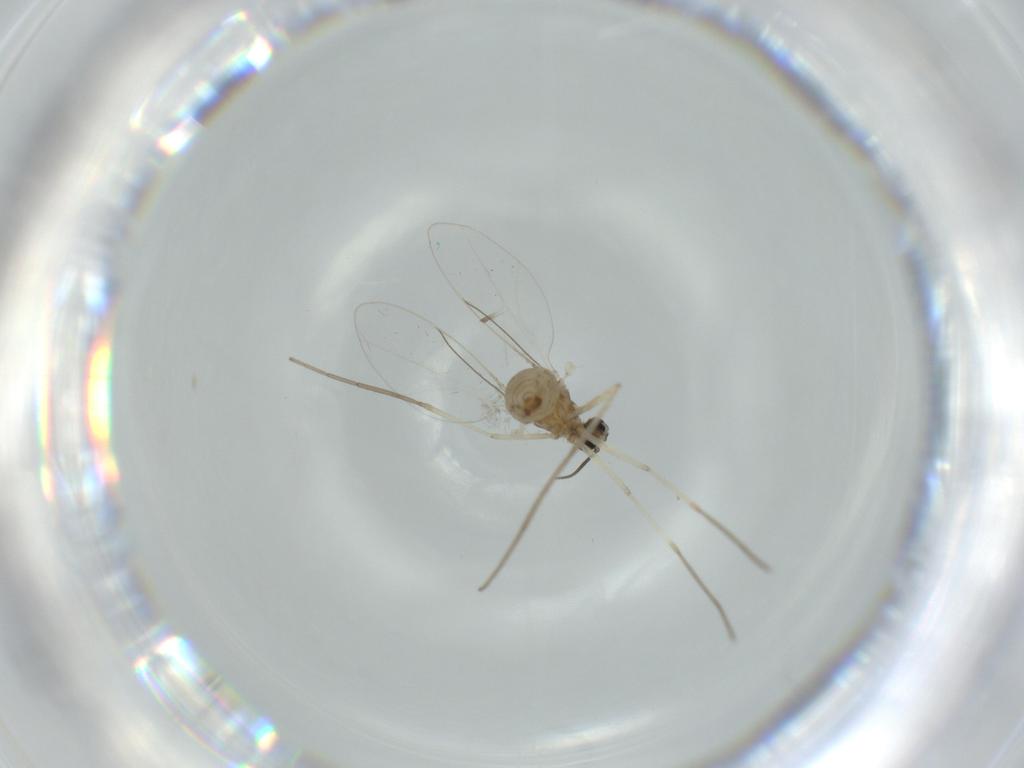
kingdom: Animalia
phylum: Arthropoda
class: Insecta
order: Diptera
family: Cecidomyiidae
